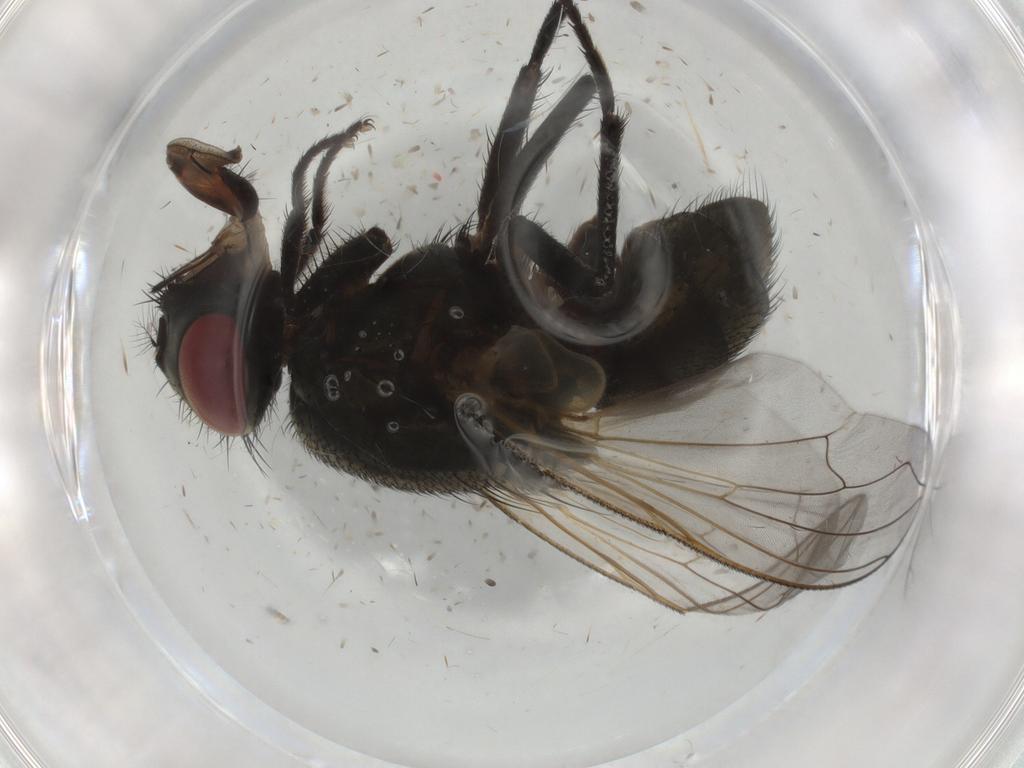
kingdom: Animalia
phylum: Arthropoda
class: Insecta
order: Diptera
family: Muscidae
